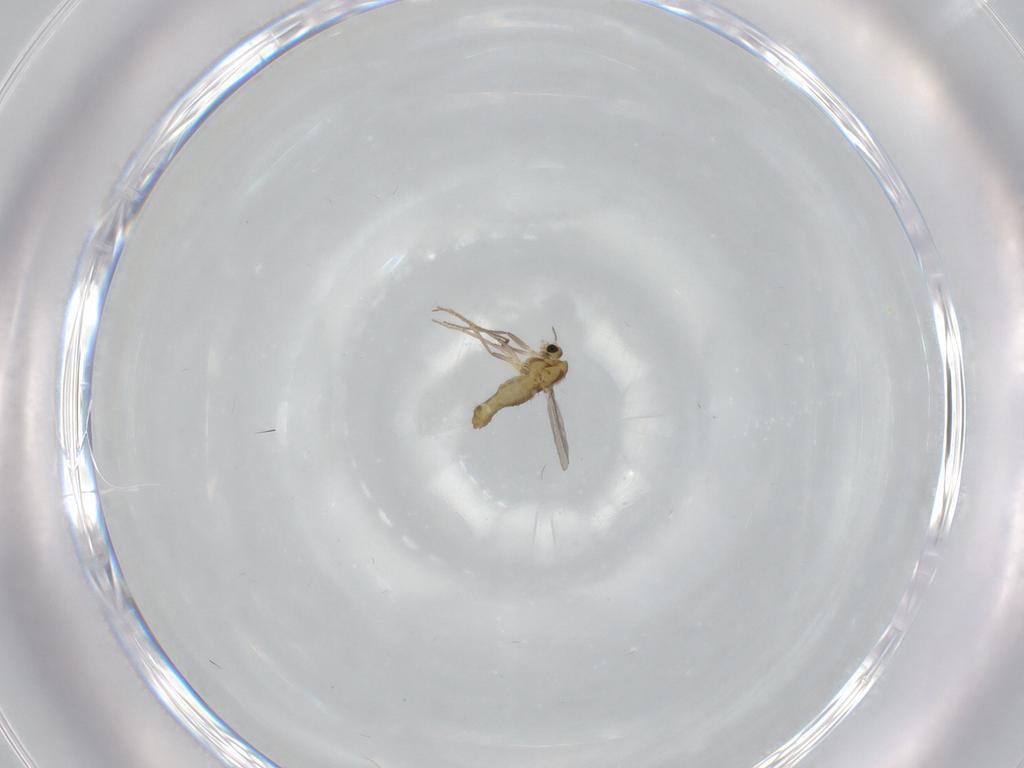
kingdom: Animalia
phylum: Arthropoda
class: Insecta
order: Diptera
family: Chironomidae
